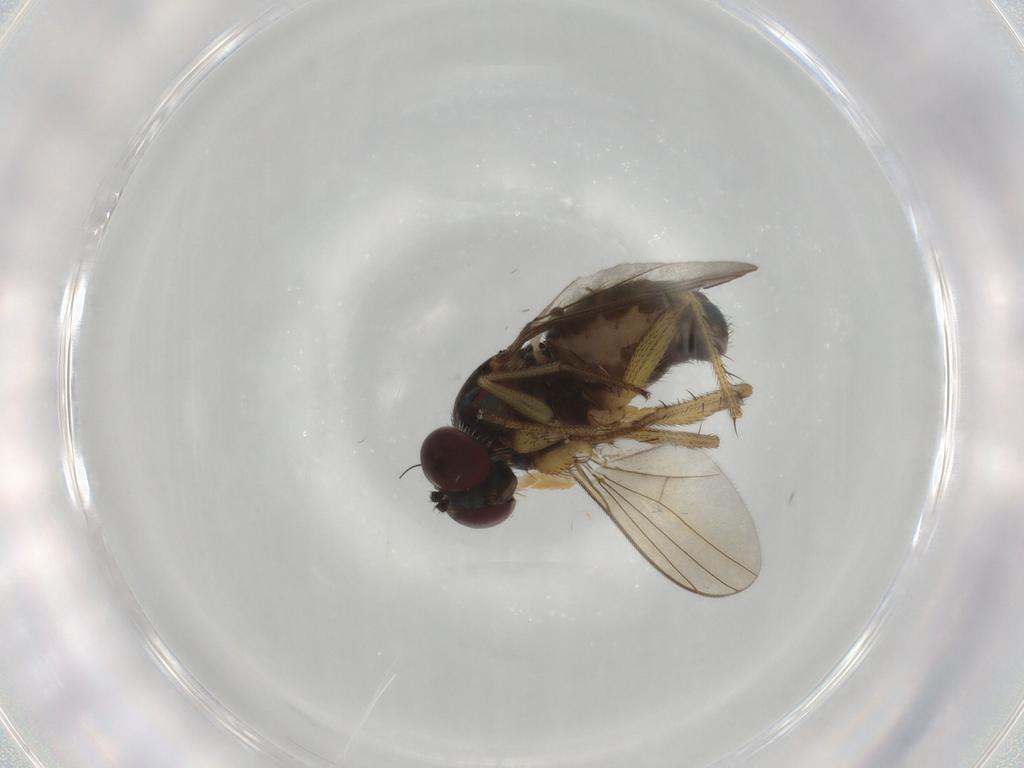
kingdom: Animalia
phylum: Arthropoda
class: Insecta
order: Diptera
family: Dolichopodidae
